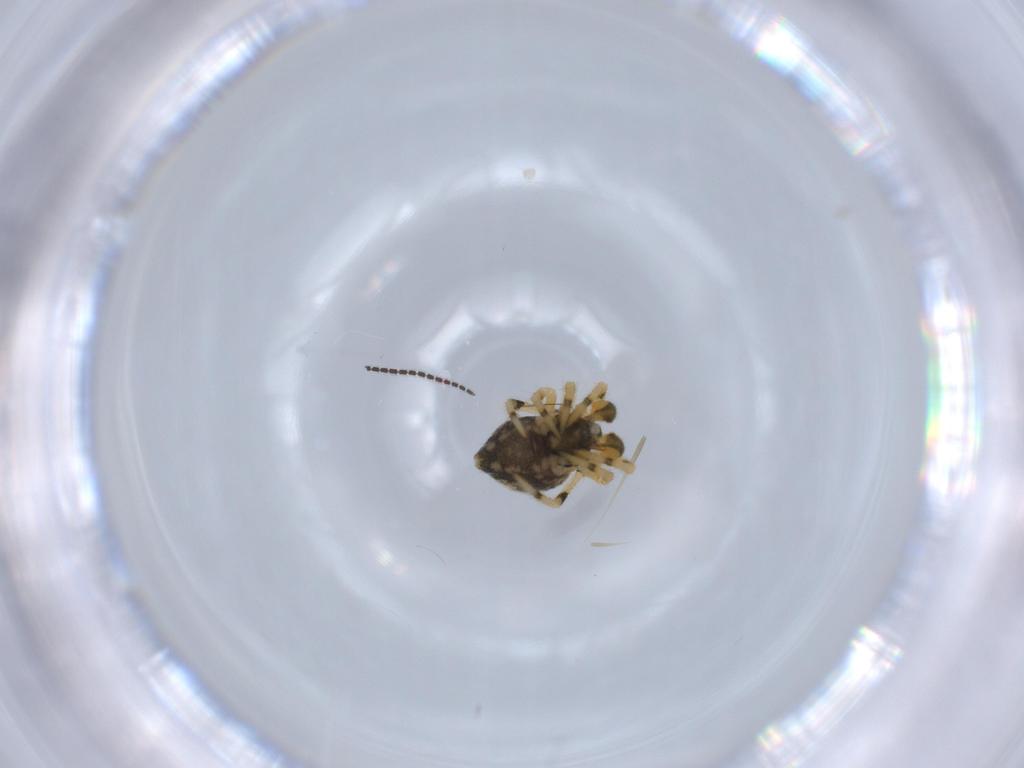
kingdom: Animalia
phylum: Arthropoda
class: Arachnida
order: Araneae
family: Theridiidae
